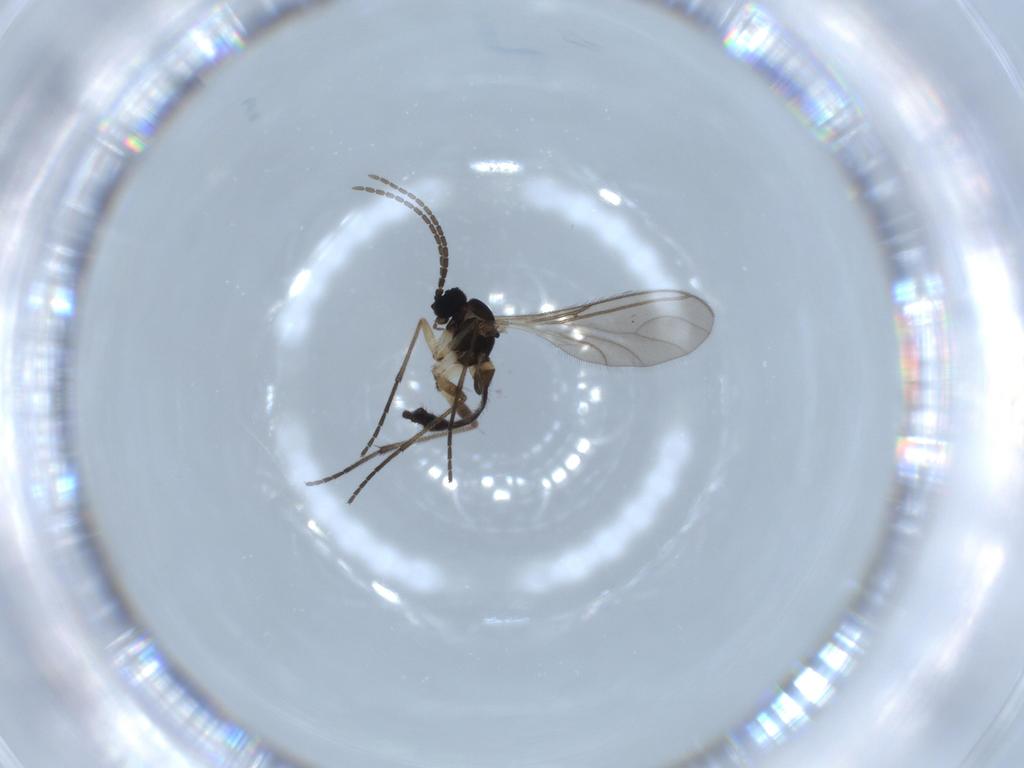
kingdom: Animalia
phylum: Arthropoda
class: Insecta
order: Diptera
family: Sciaridae
